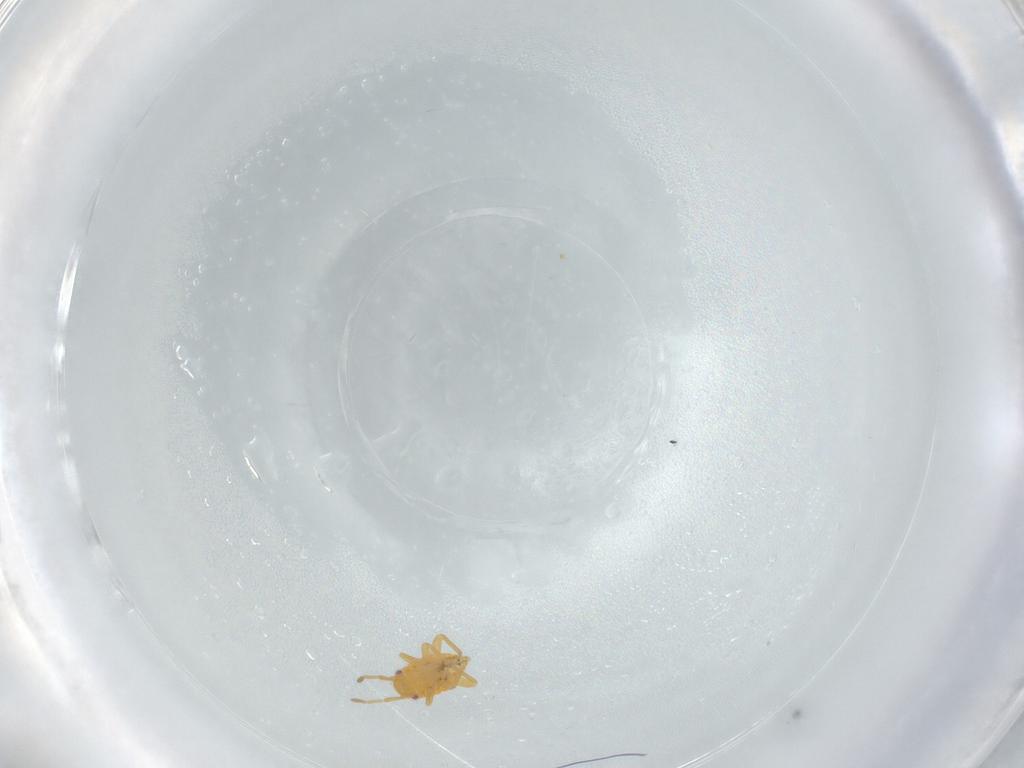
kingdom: Animalia
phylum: Arthropoda
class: Insecta
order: Hemiptera
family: Miridae
